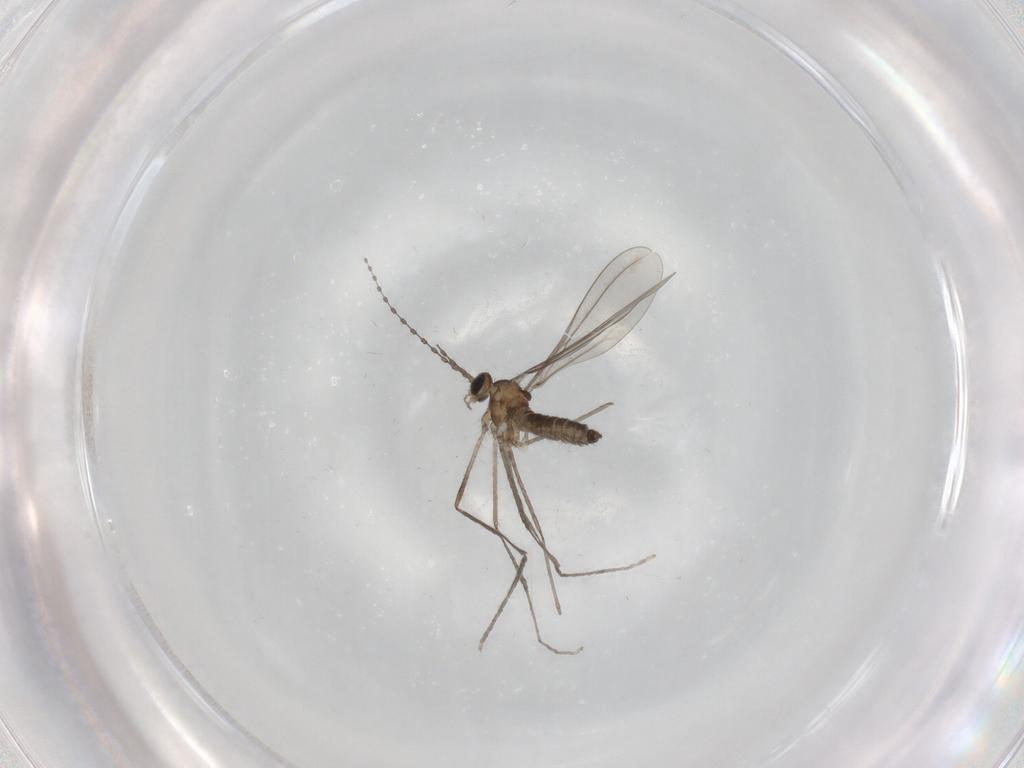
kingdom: Animalia
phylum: Arthropoda
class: Insecta
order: Diptera
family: Cecidomyiidae
